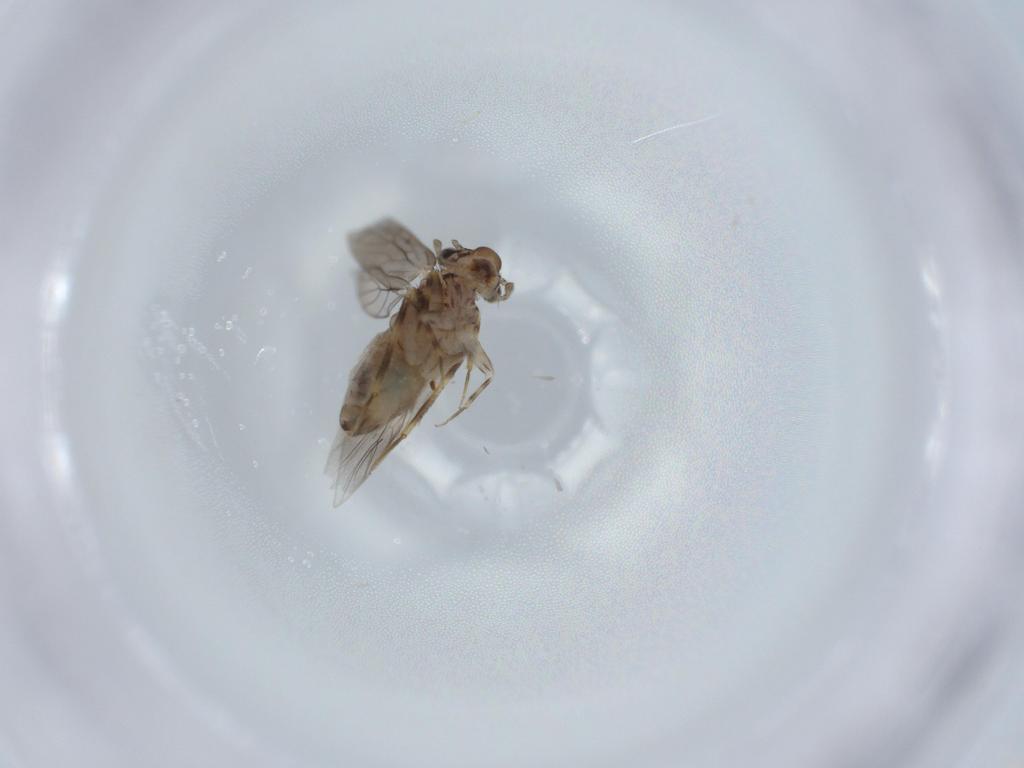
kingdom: Animalia
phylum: Arthropoda
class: Insecta
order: Psocodea
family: Lepidopsocidae
